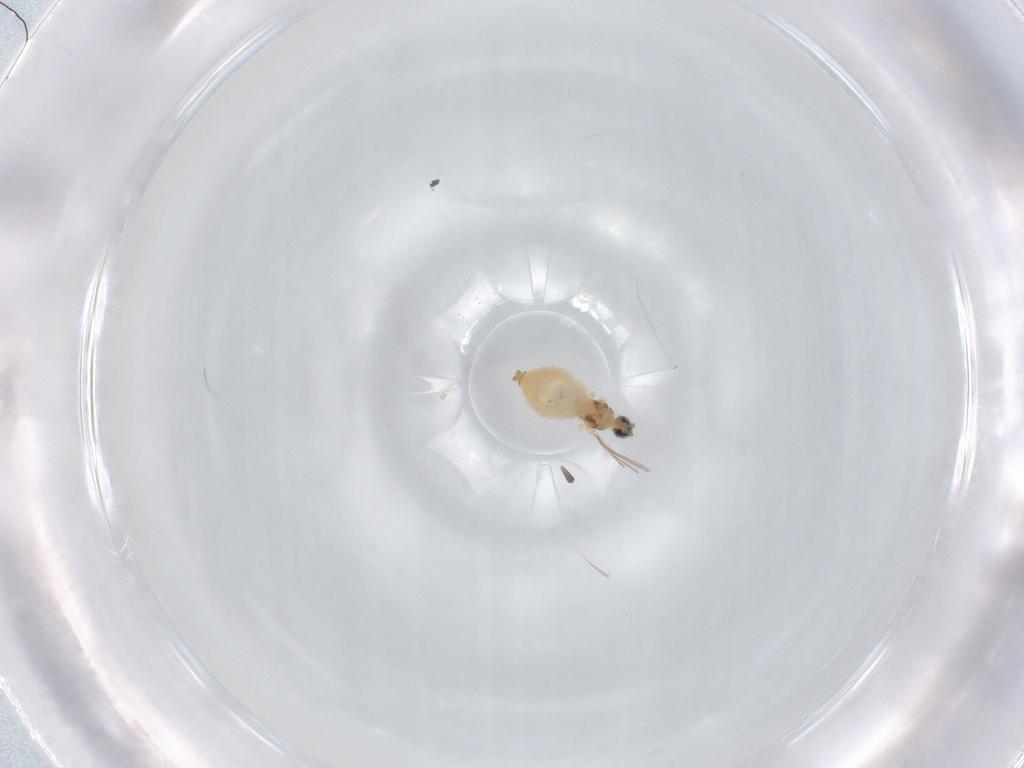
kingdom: Animalia
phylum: Arthropoda
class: Insecta
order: Diptera
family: Cecidomyiidae
